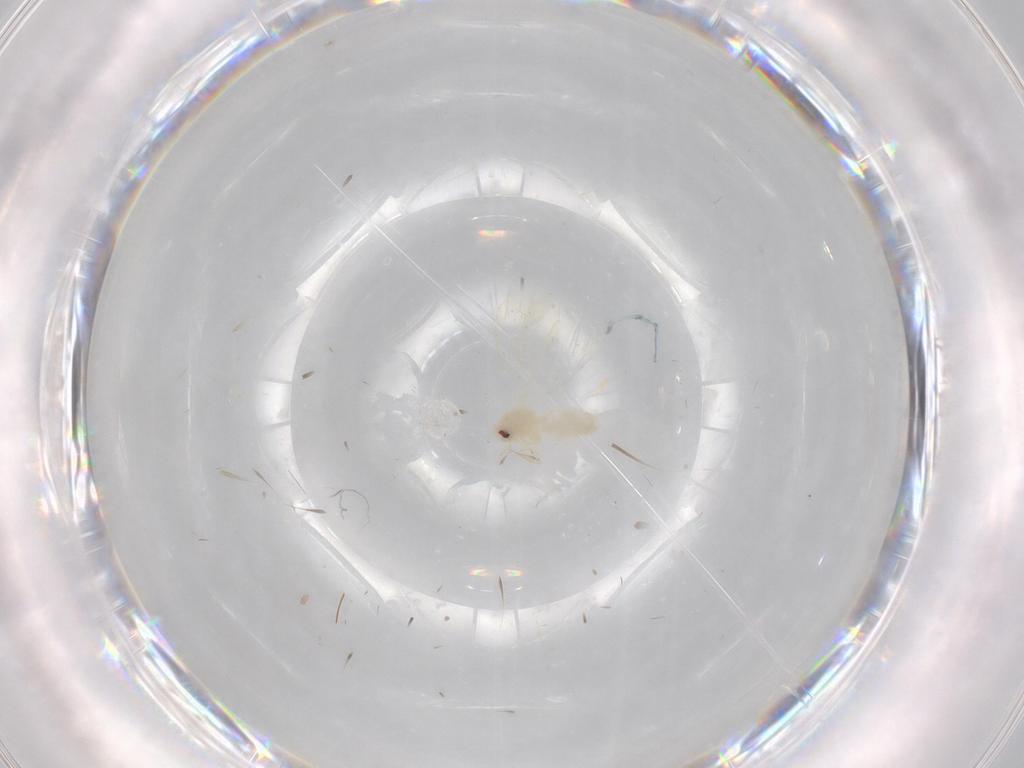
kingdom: Animalia
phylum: Arthropoda
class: Insecta
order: Hemiptera
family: Aleyrodidae
